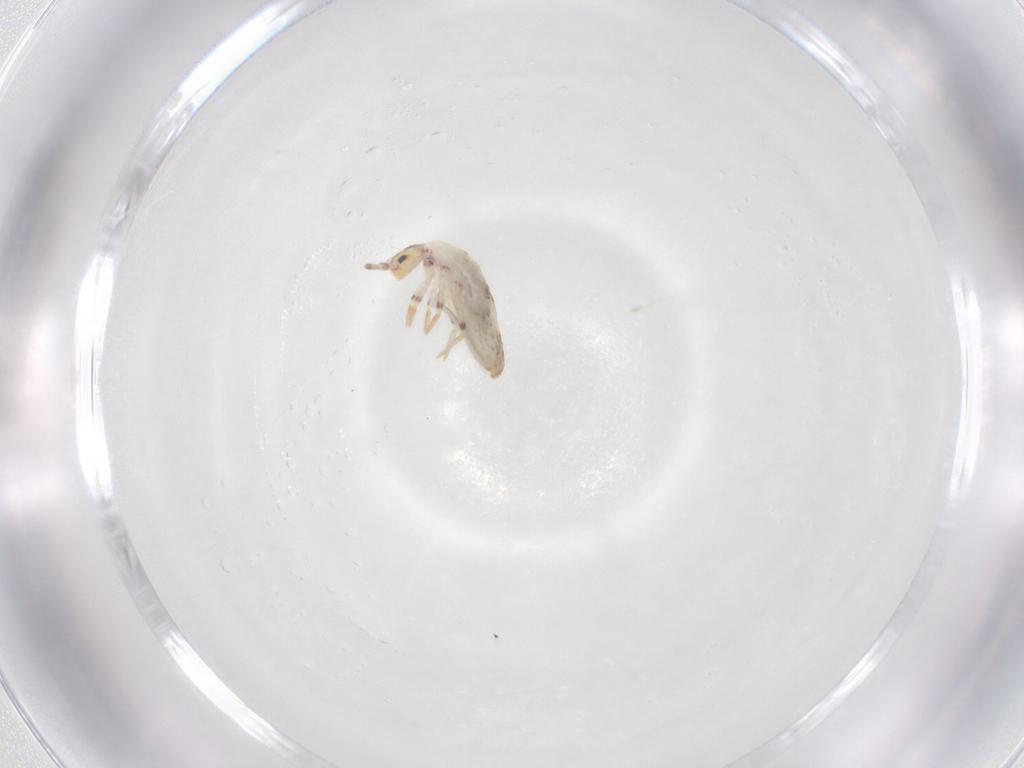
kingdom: Animalia
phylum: Arthropoda
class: Collembola
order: Entomobryomorpha
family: Entomobryidae
